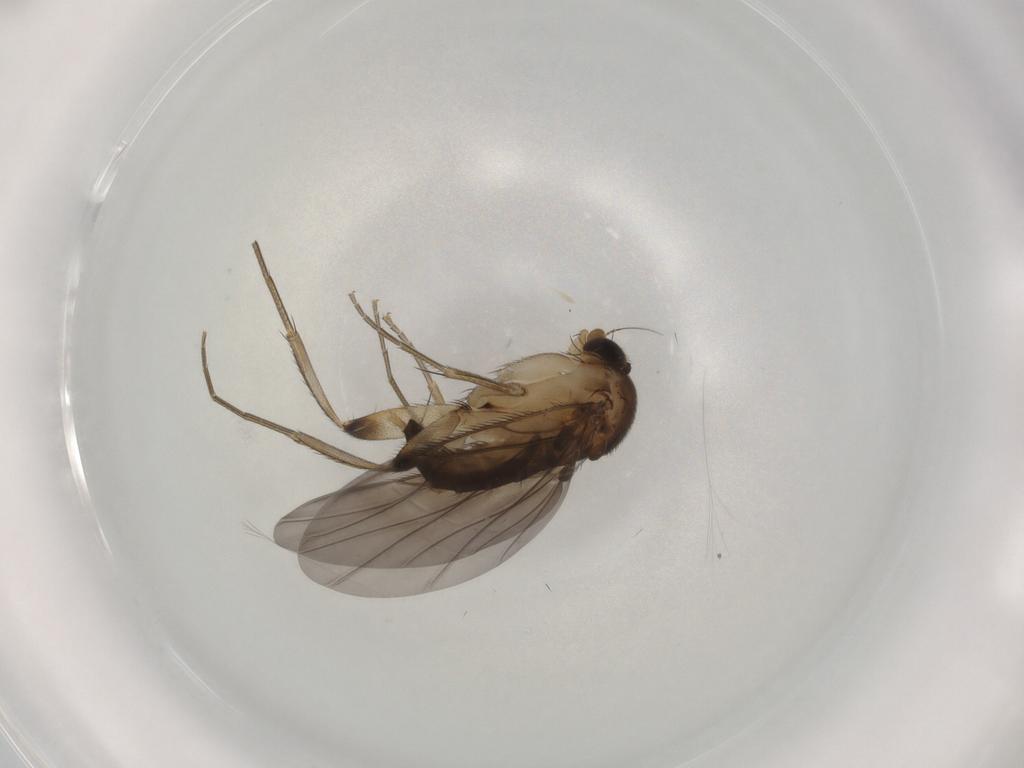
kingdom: Animalia
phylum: Arthropoda
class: Insecta
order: Diptera
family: Phoridae
